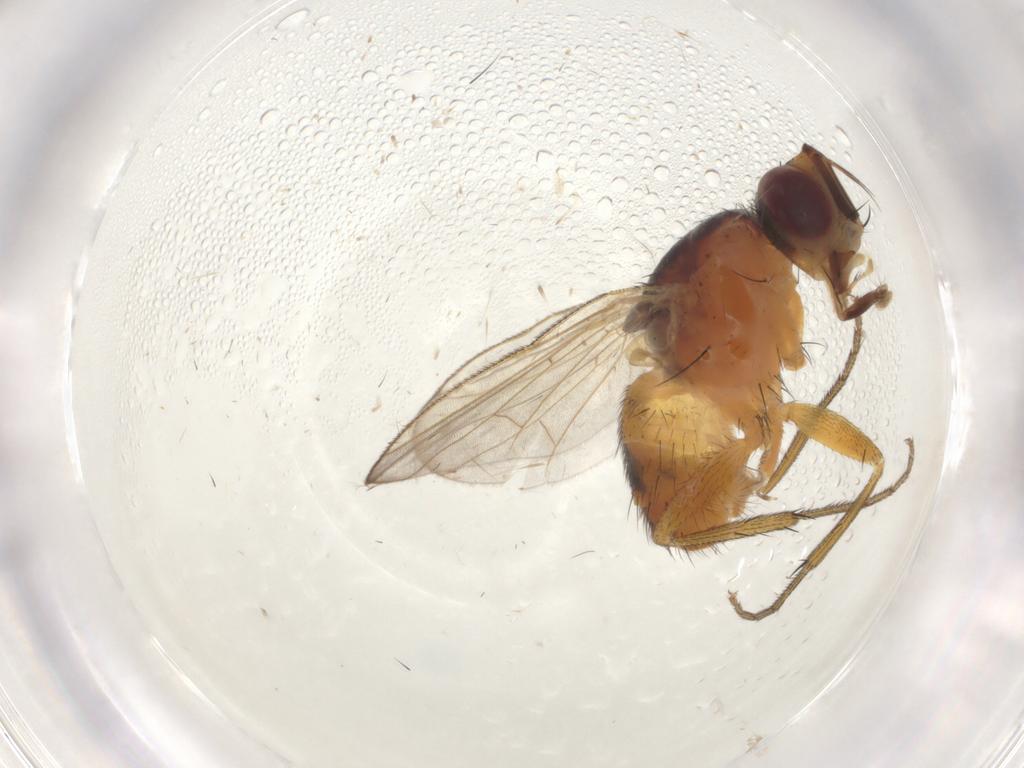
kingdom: Animalia
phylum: Arthropoda
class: Insecta
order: Diptera
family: Muscidae
